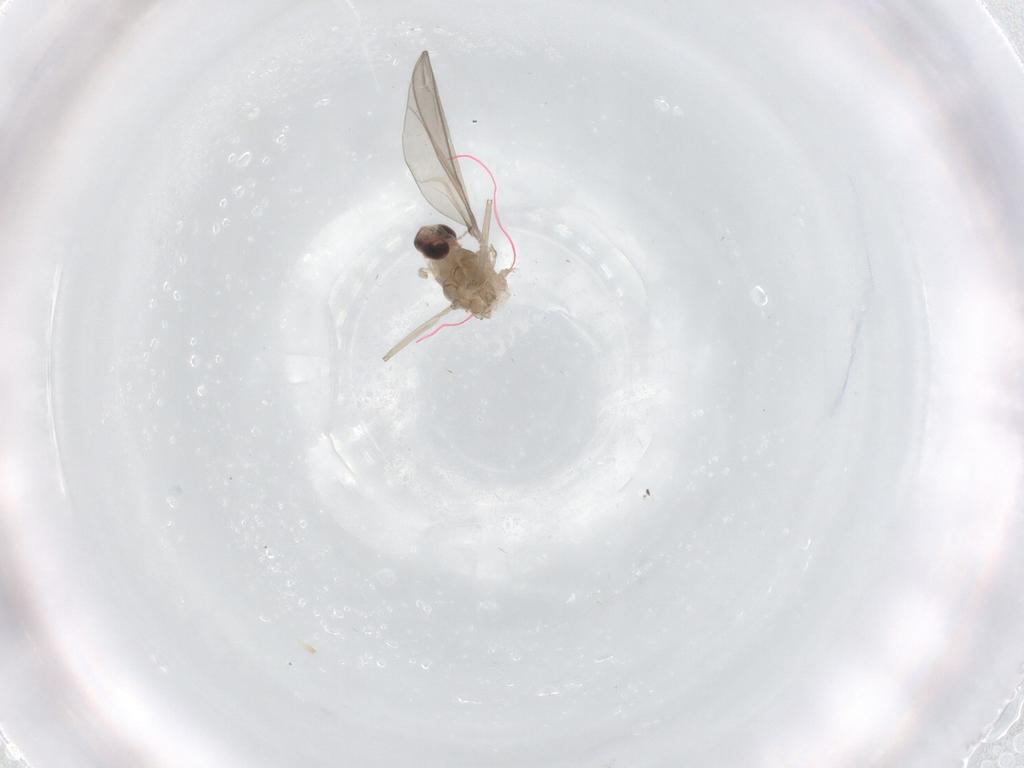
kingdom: Animalia
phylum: Arthropoda
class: Insecta
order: Diptera
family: Cecidomyiidae
